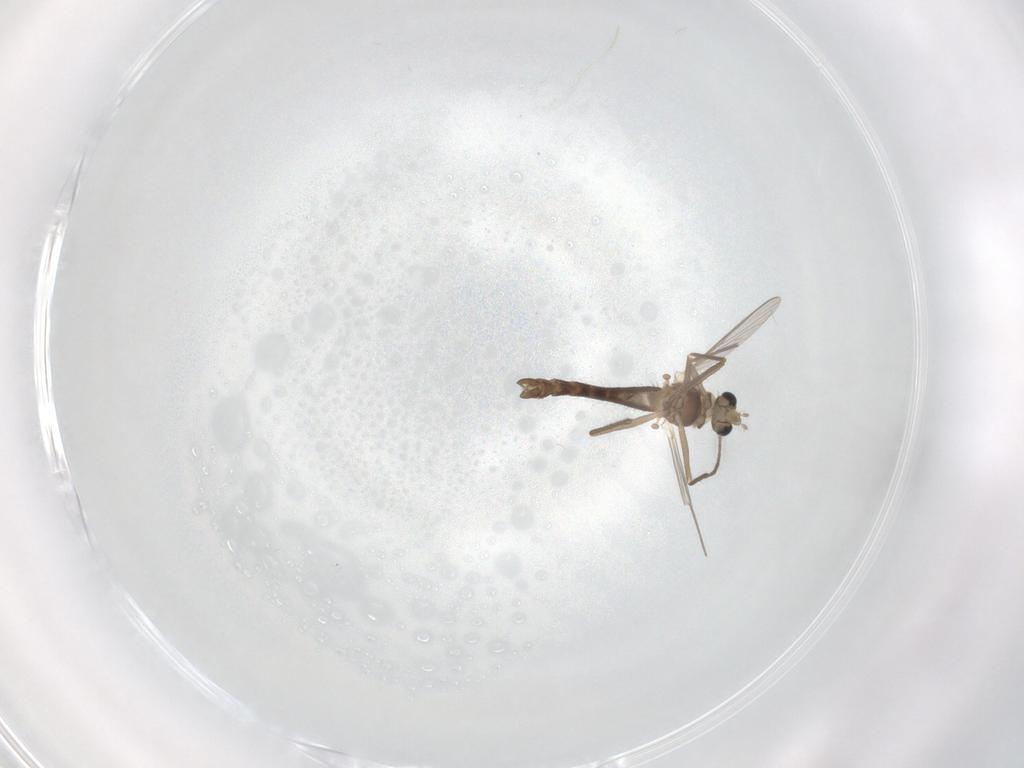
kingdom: Animalia
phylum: Arthropoda
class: Insecta
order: Diptera
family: Chironomidae
